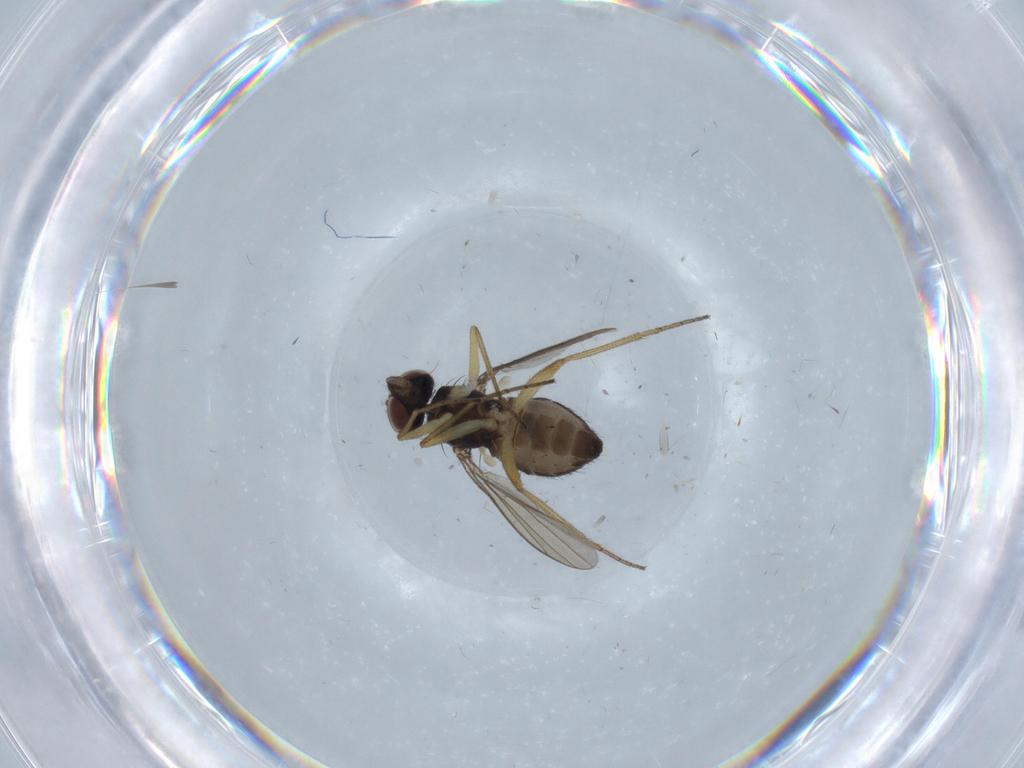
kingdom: Animalia
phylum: Arthropoda
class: Insecta
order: Diptera
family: Dolichopodidae
